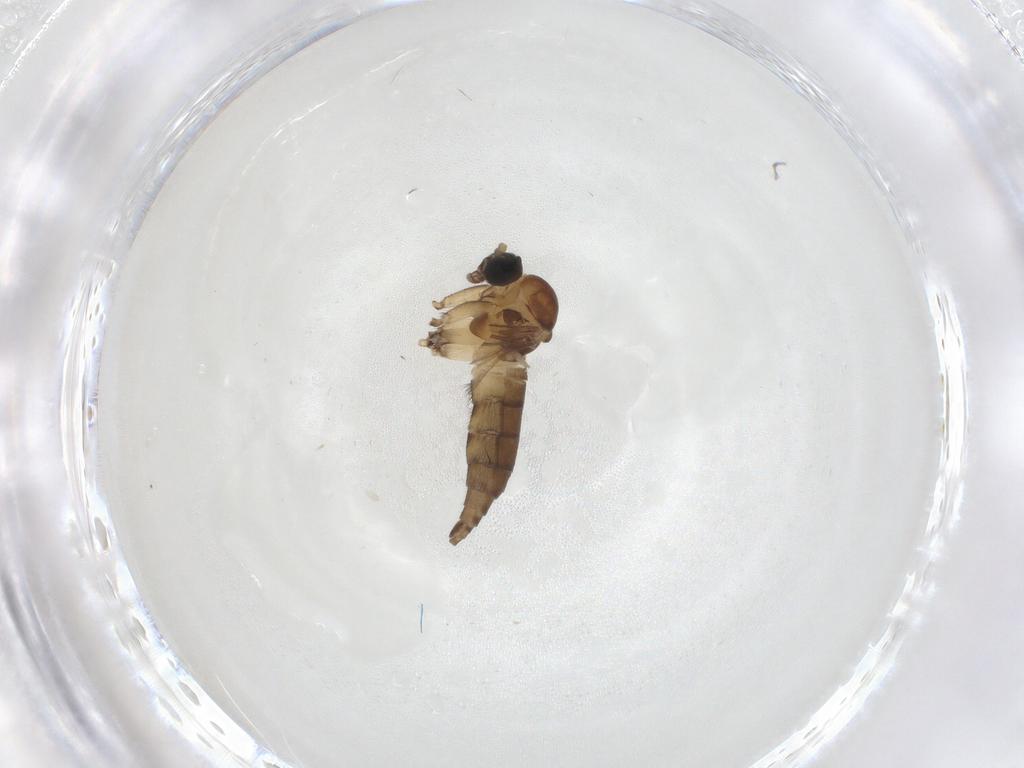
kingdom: Animalia
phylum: Arthropoda
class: Insecta
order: Diptera
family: Sciaridae
